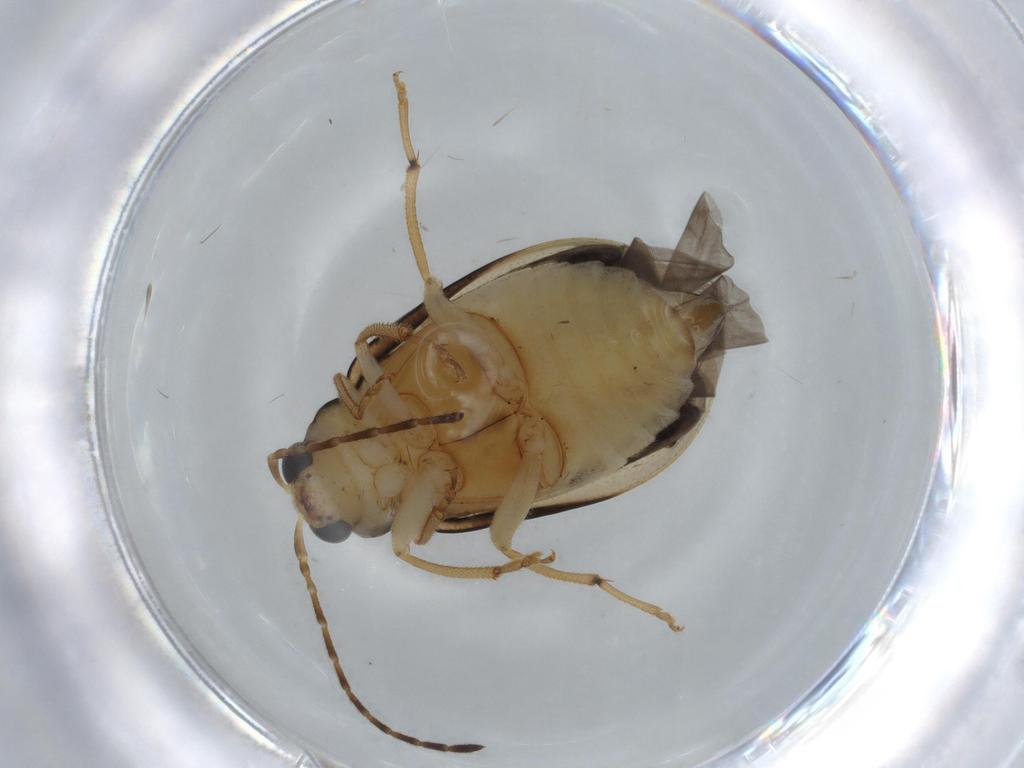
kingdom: Animalia
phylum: Arthropoda
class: Insecta
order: Coleoptera
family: Chrysomelidae
